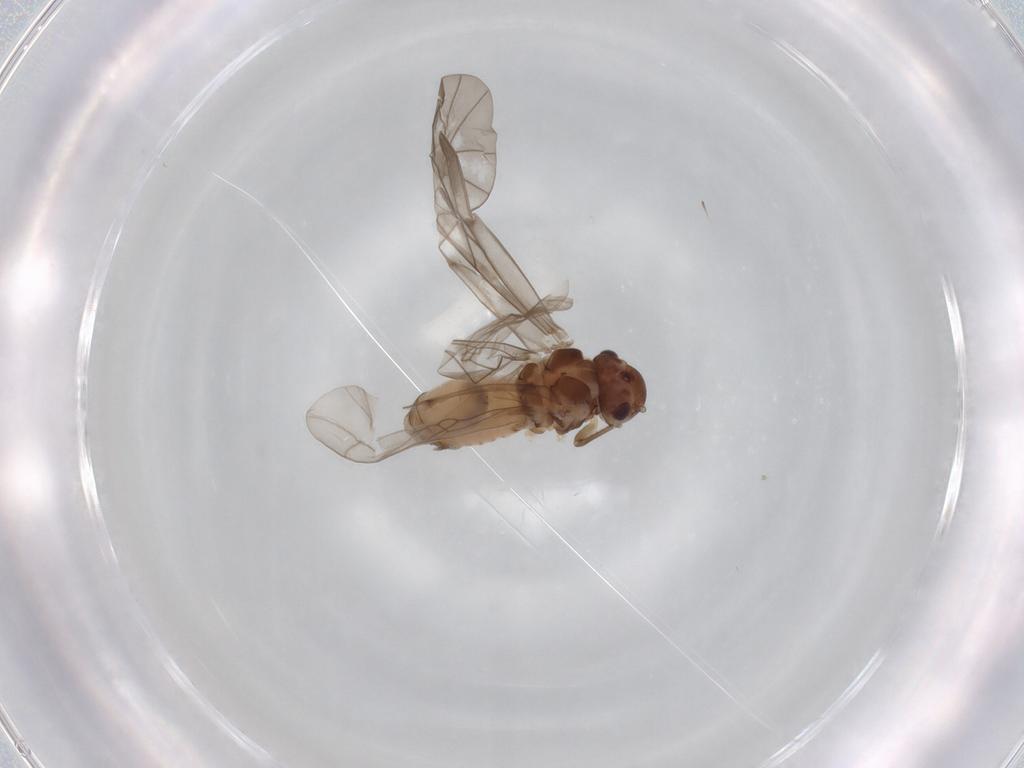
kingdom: Animalia
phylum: Arthropoda
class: Insecta
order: Psocodea
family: Peripsocidae
